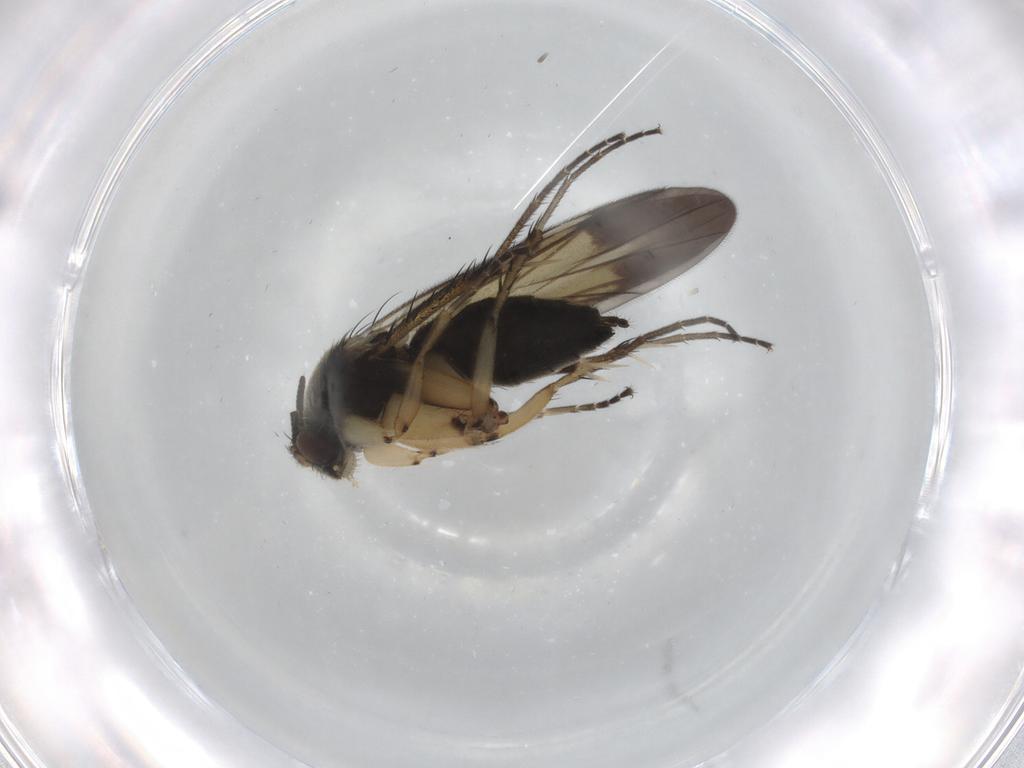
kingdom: Animalia
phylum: Arthropoda
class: Insecta
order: Diptera
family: Mycetophilidae
